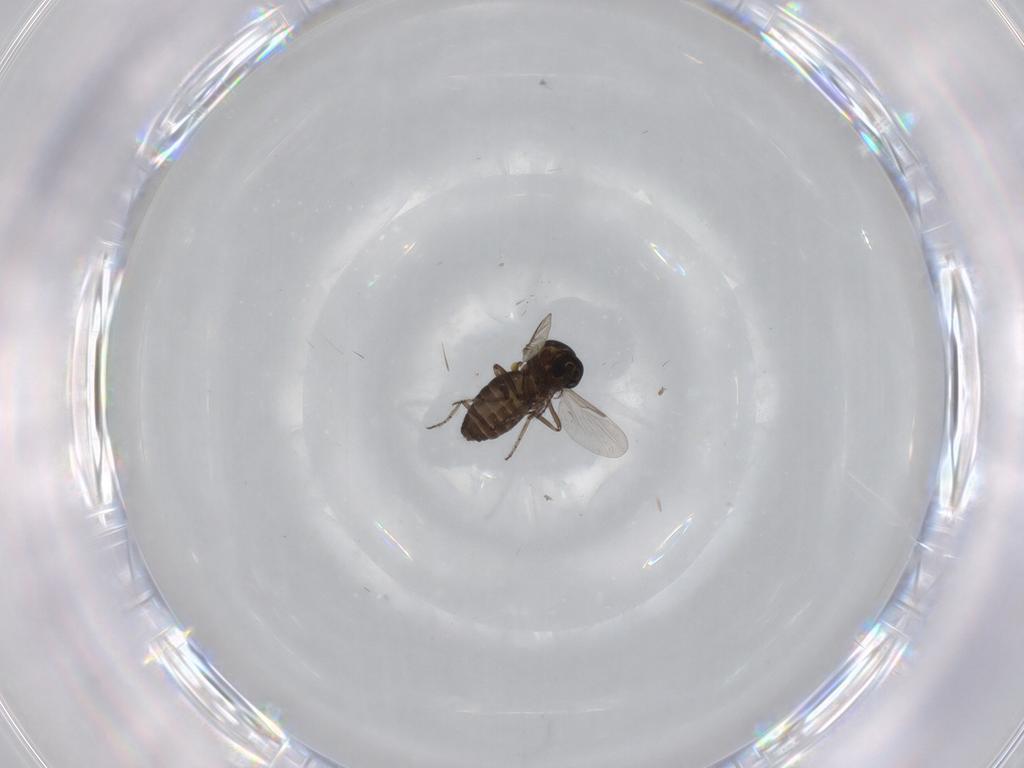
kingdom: Animalia
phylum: Arthropoda
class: Insecta
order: Diptera
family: Ceratopogonidae
